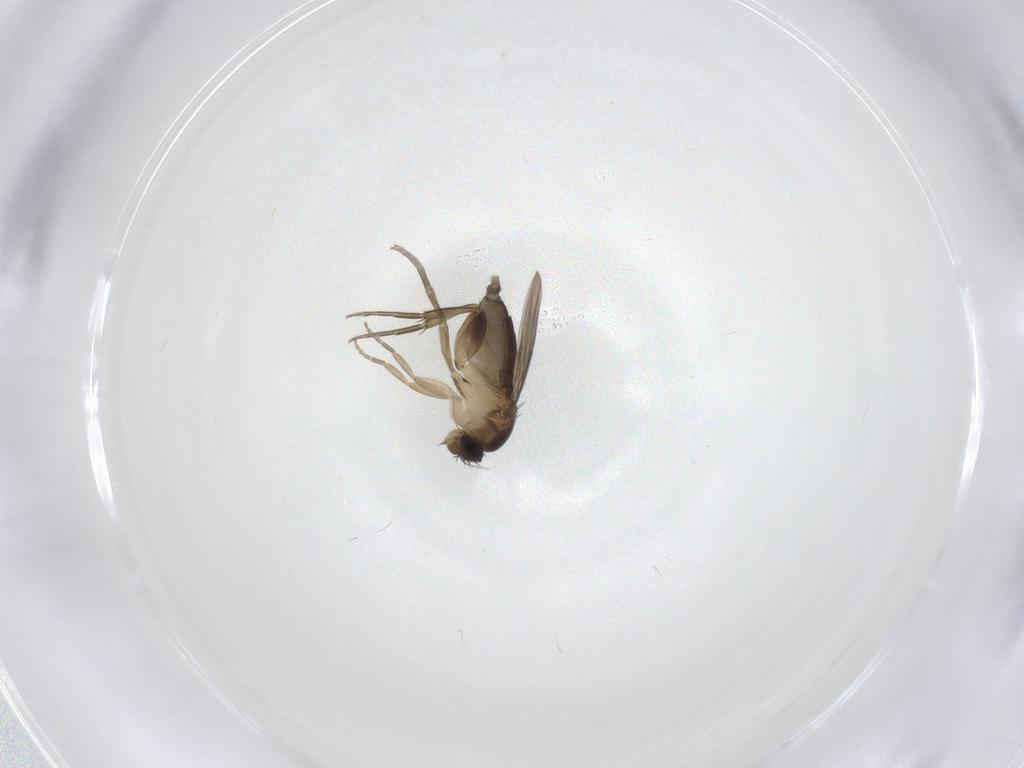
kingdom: Animalia
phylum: Arthropoda
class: Insecta
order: Diptera
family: Phoridae
